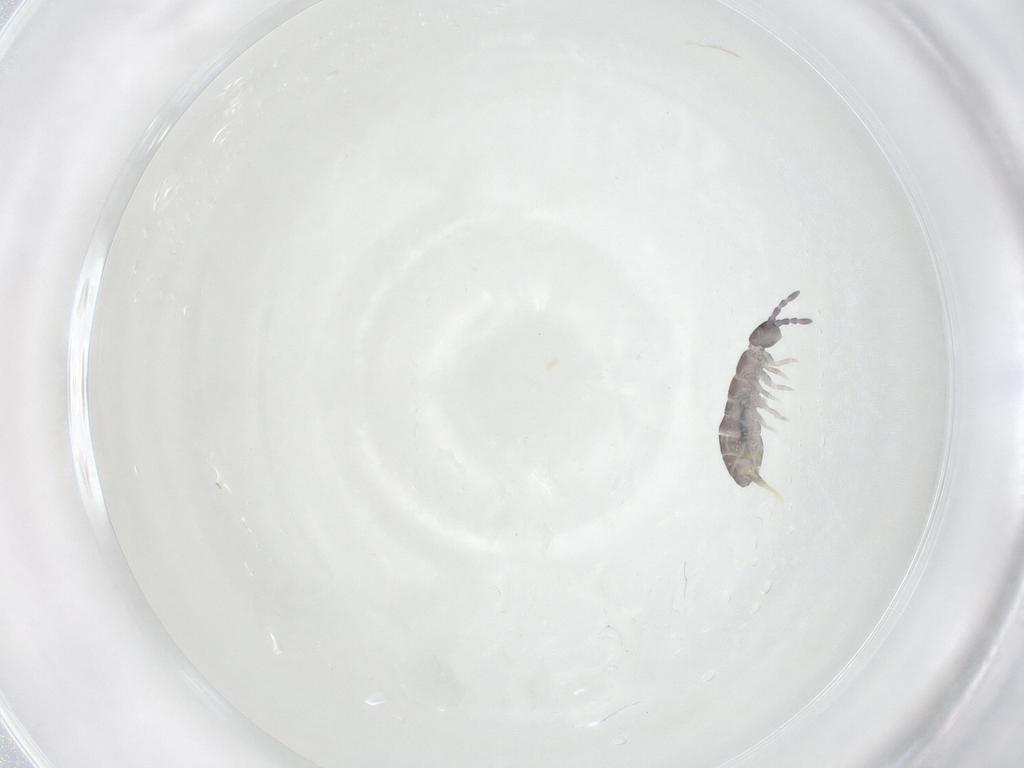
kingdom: Animalia
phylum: Arthropoda
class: Collembola
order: Entomobryomorpha
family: Isotomidae
